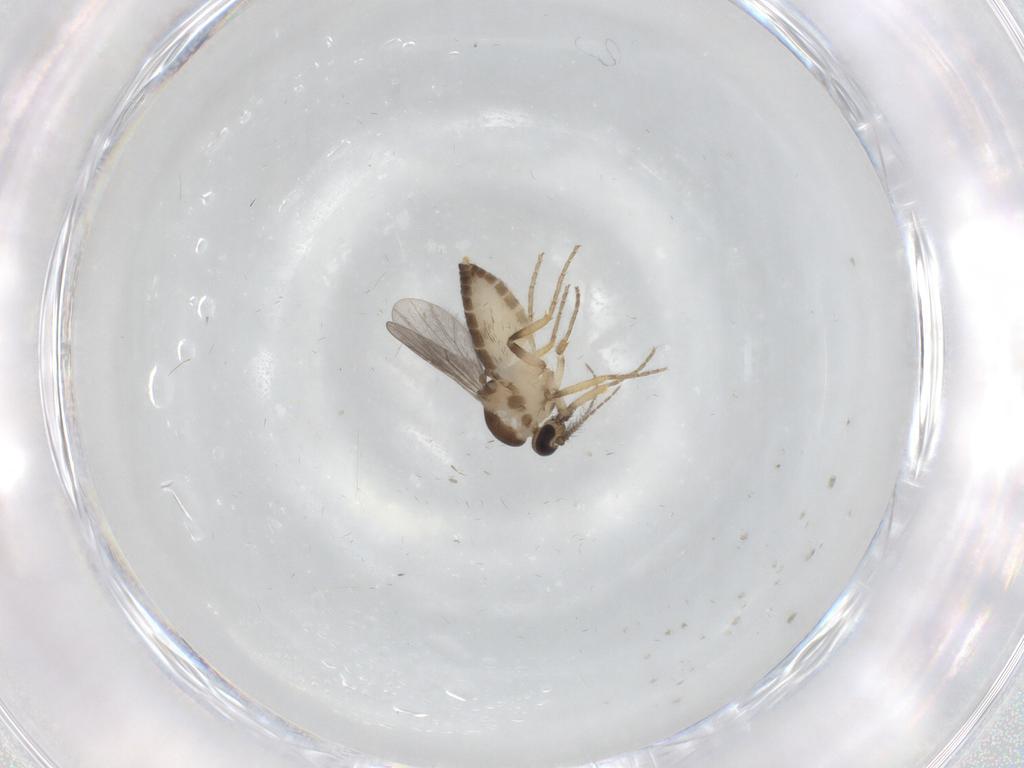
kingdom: Animalia
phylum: Arthropoda
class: Insecta
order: Diptera
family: Ceratopogonidae
